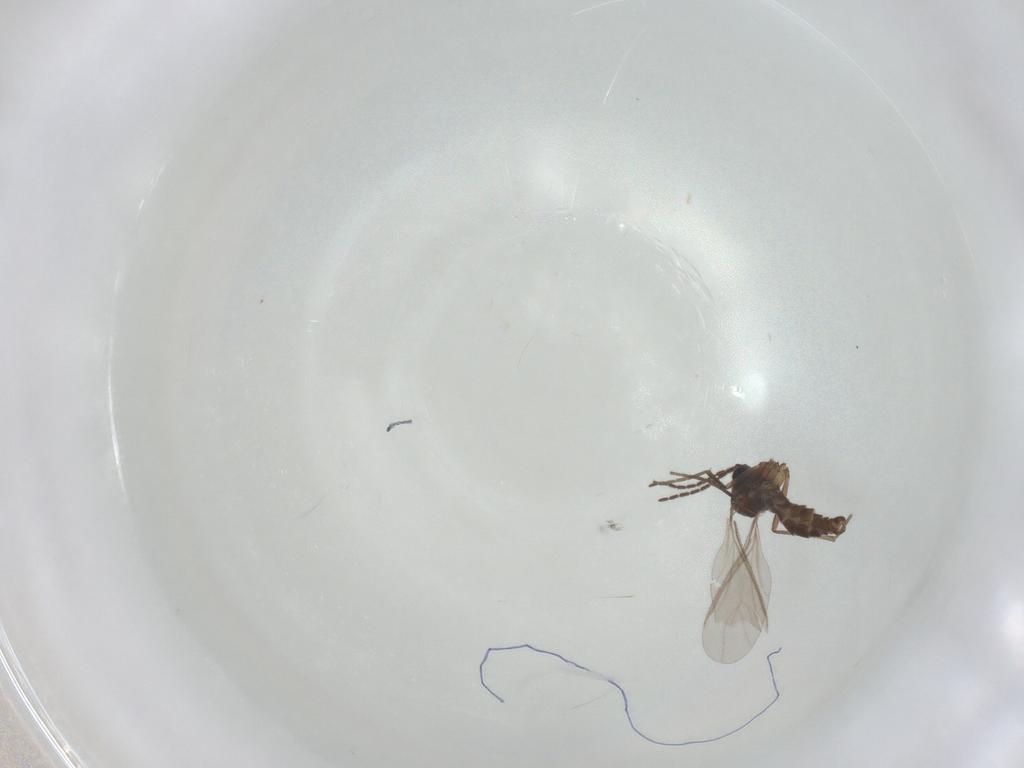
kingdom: Animalia
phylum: Arthropoda
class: Insecta
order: Diptera
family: Sciaridae
